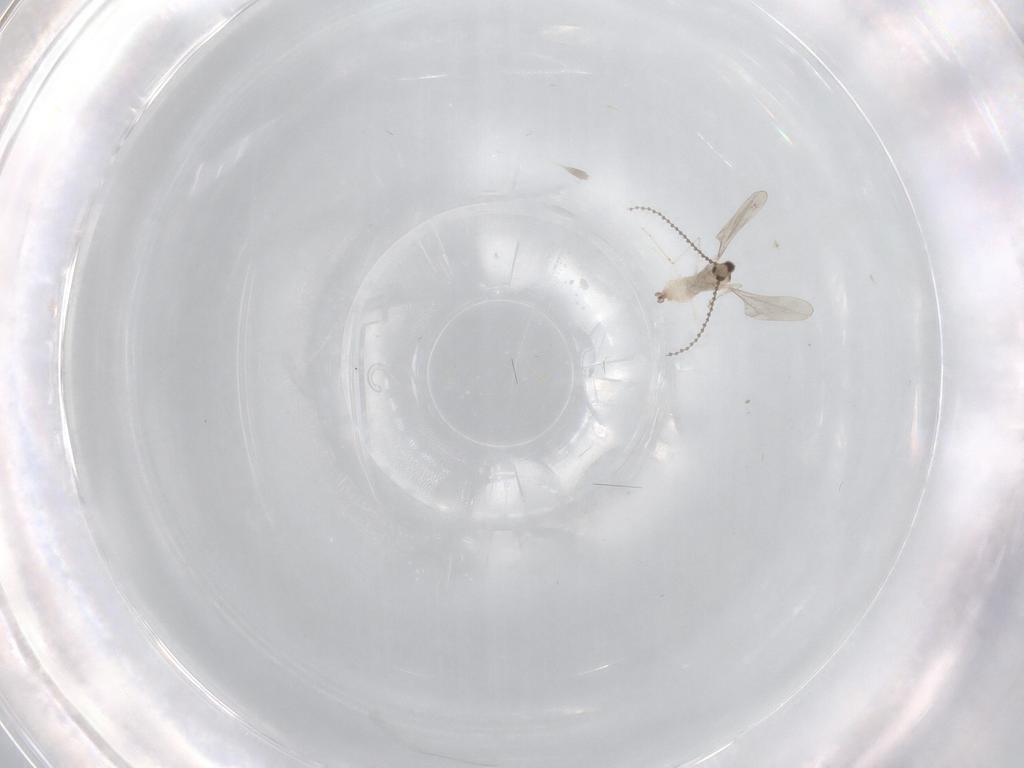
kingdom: Animalia
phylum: Arthropoda
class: Insecta
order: Diptera
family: Cecidomyiidae
